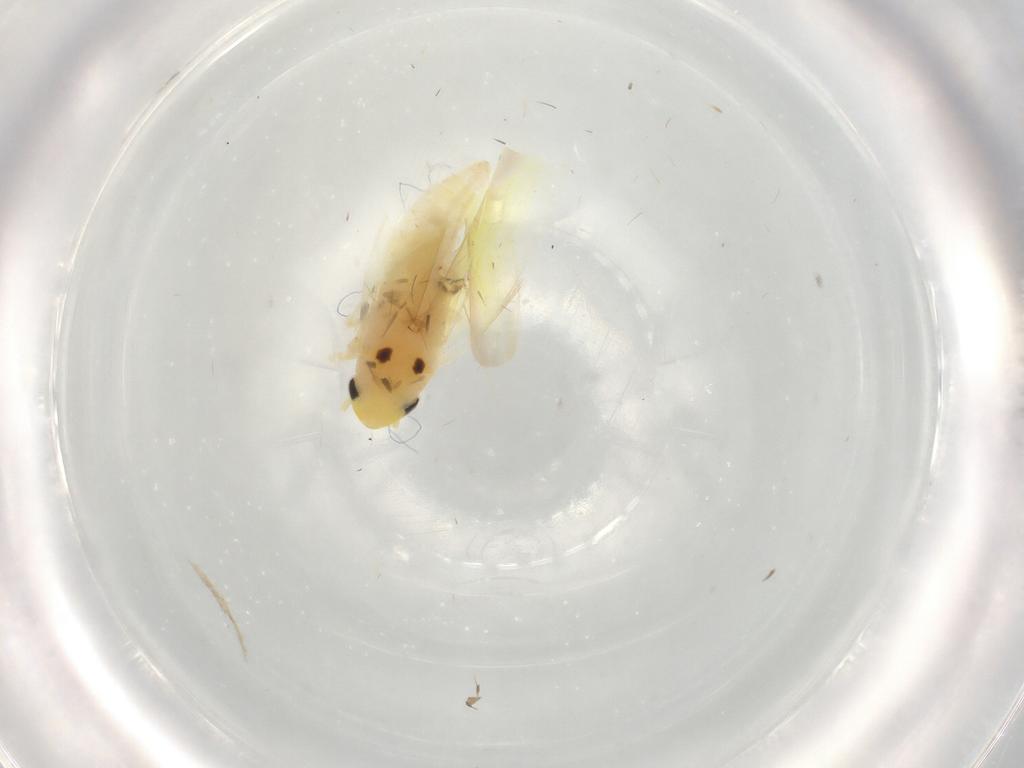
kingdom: Animalia
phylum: Arthropoda
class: Insecta
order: Hemiptera
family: Cicadellidae
